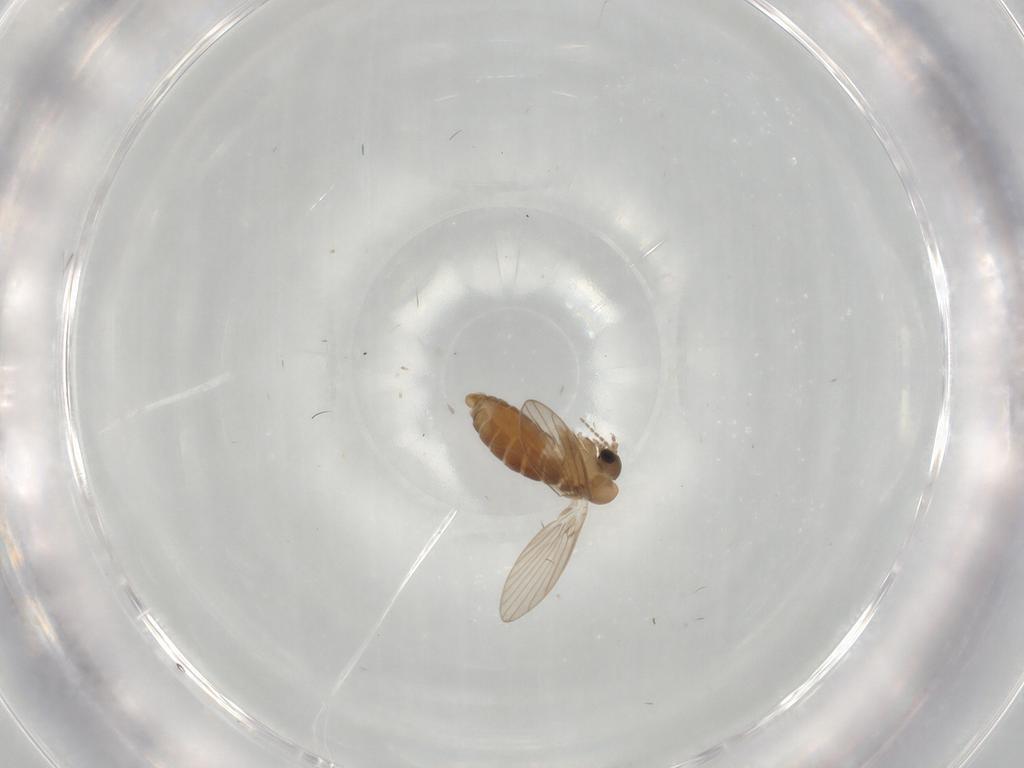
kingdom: Animalia
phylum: Arthropoda
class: Insecta
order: Diptera
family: Psychodidae
